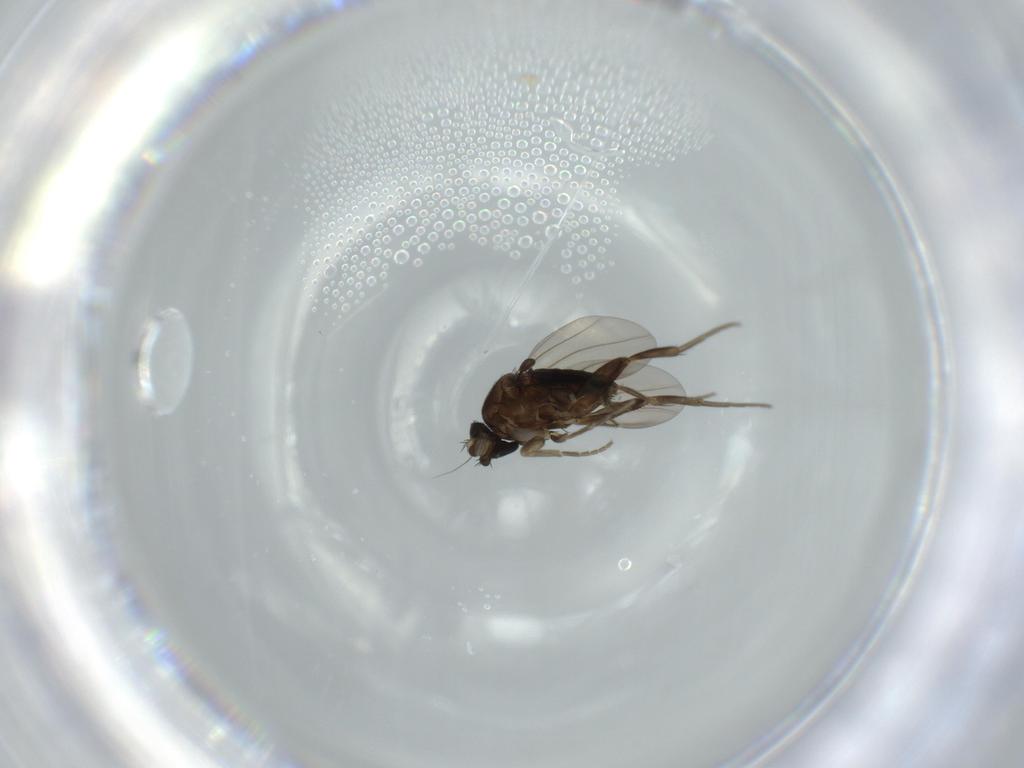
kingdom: Animalia
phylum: Arthropoda
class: Insecta
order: Diptera
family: Phoridae
